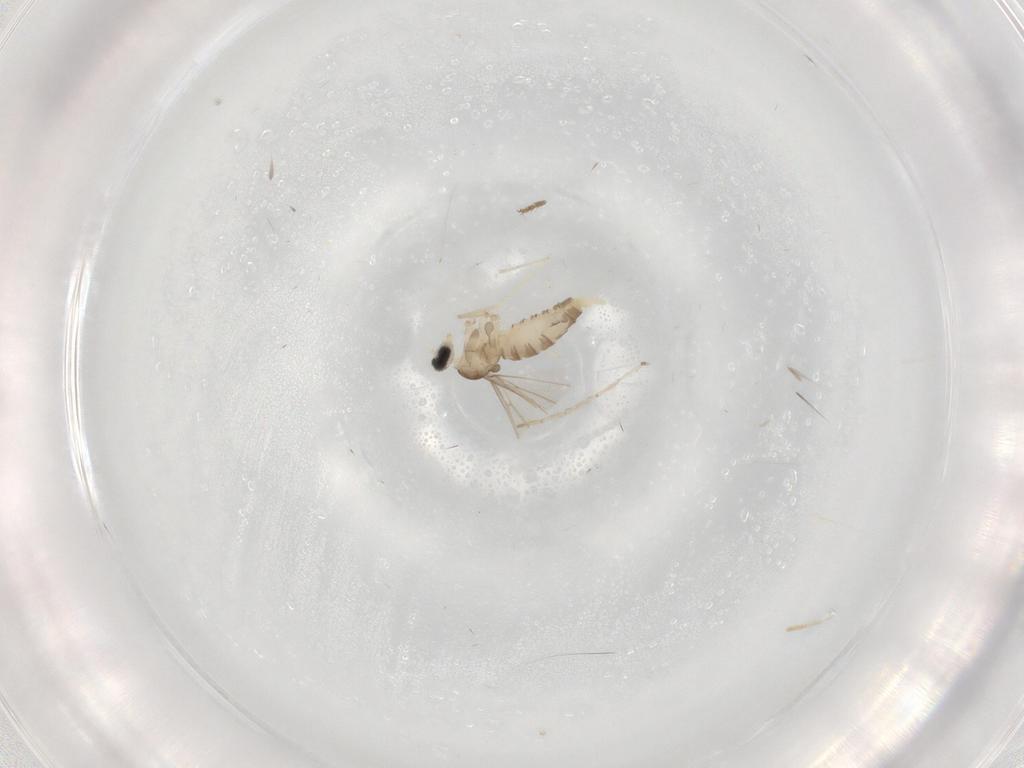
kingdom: Animalia
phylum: Arthropoda
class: Insecta
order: Diptera
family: Cecidomyiidae
